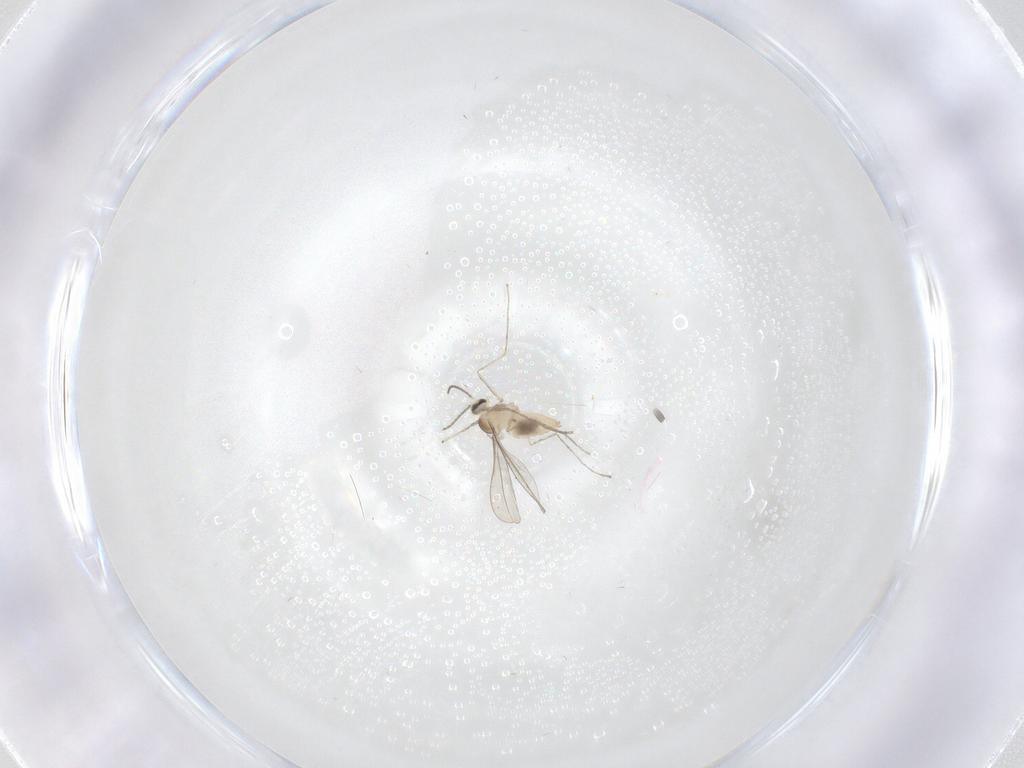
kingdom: Animalia
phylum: Arthropoda
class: Insecta
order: Diptera
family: Cecidomyiidae
